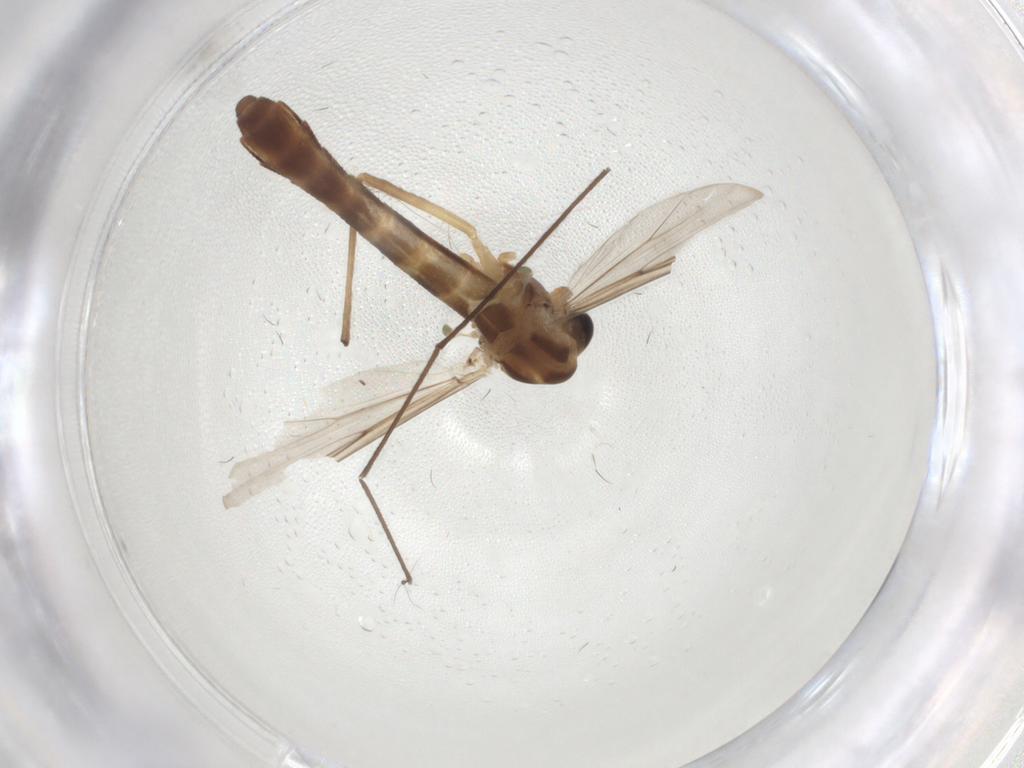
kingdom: Animalia
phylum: Arthropoda
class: Insecta
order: Diptera
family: Chironomidae
